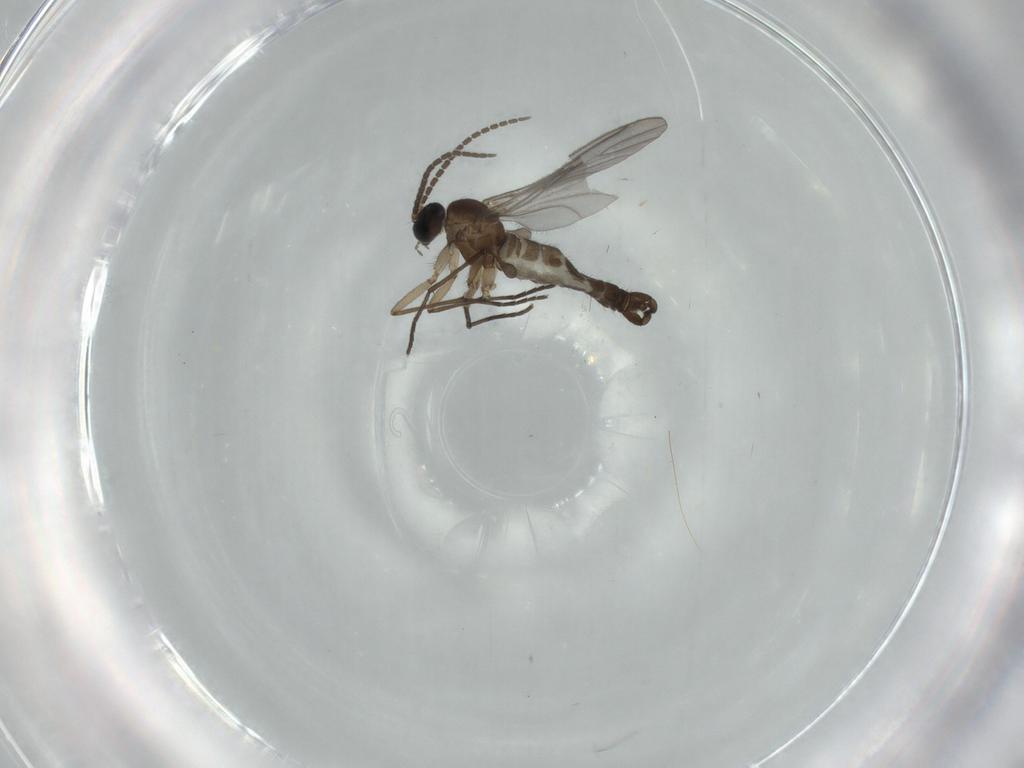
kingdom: Animalia
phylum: Arthropoda
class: Insecta
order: Diptera
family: Sciaridae
